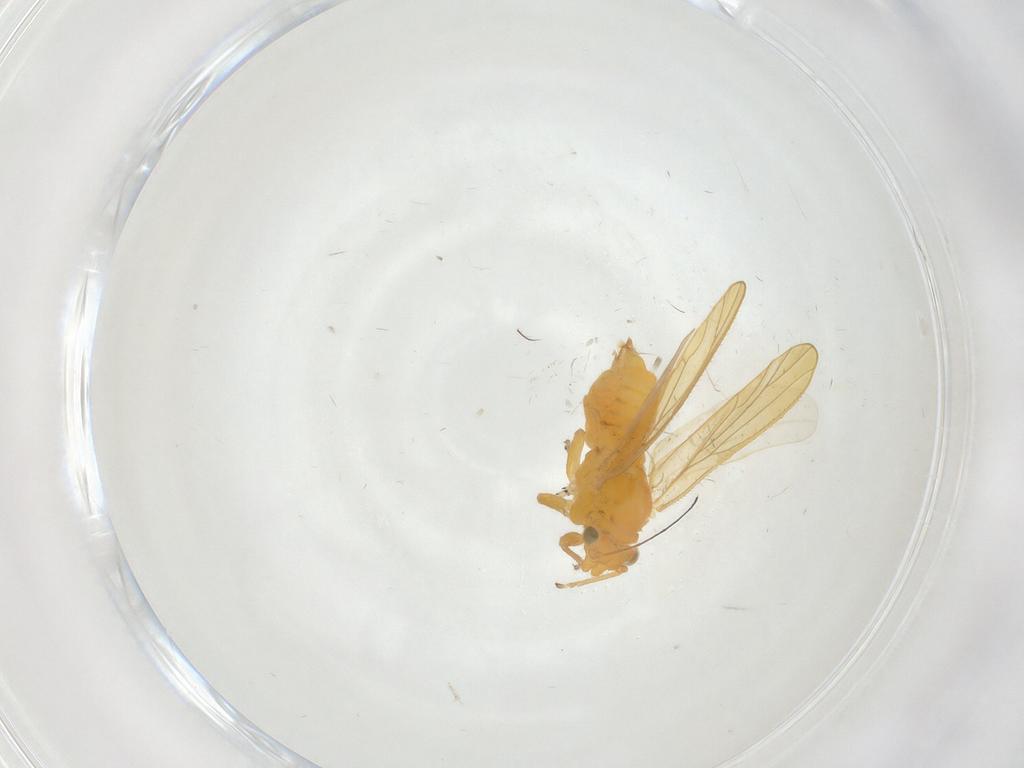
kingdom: Animalia
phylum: Arthropoda
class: Insecta
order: Hemiptera
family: Psyllidae
